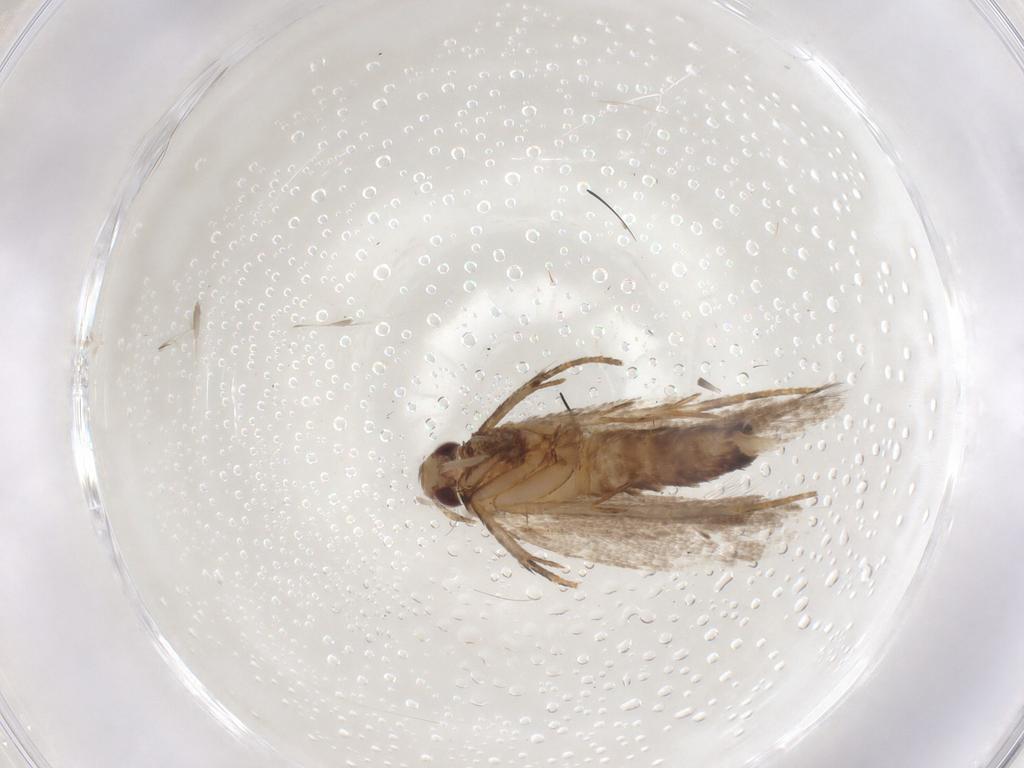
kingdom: Animalia
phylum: Arthropoda
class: Insecta
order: Lepidoptera
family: Gelechiidae
